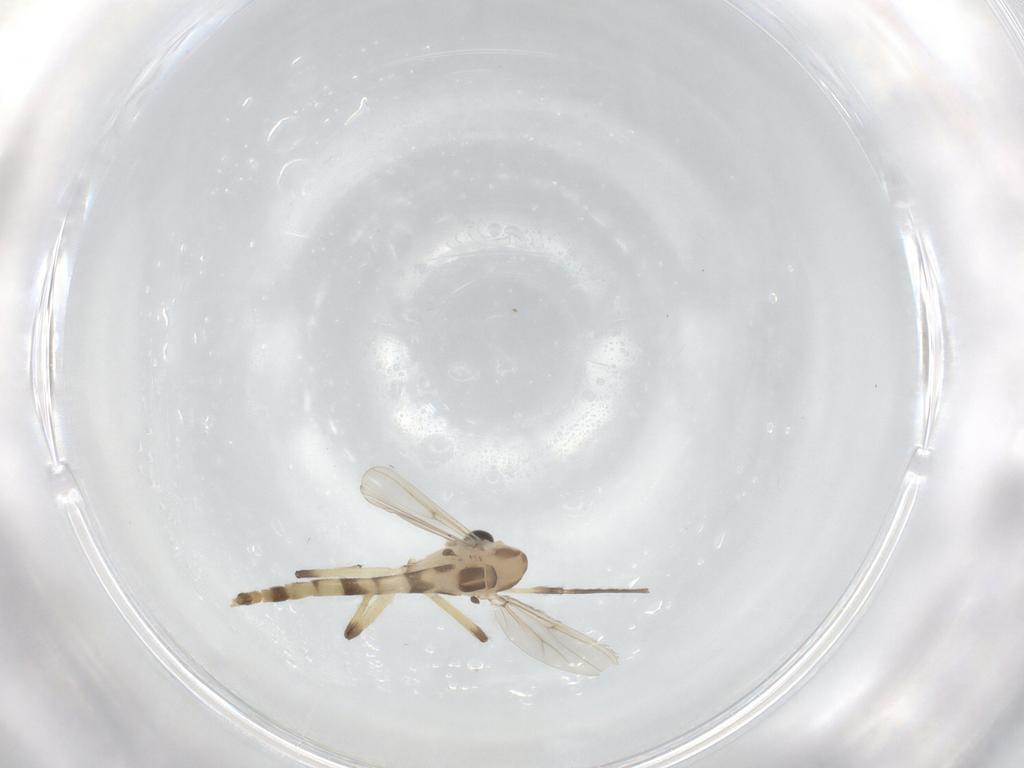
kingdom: Animalia
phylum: Arthropoda
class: Insecta
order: Diptera
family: Chironomidae
